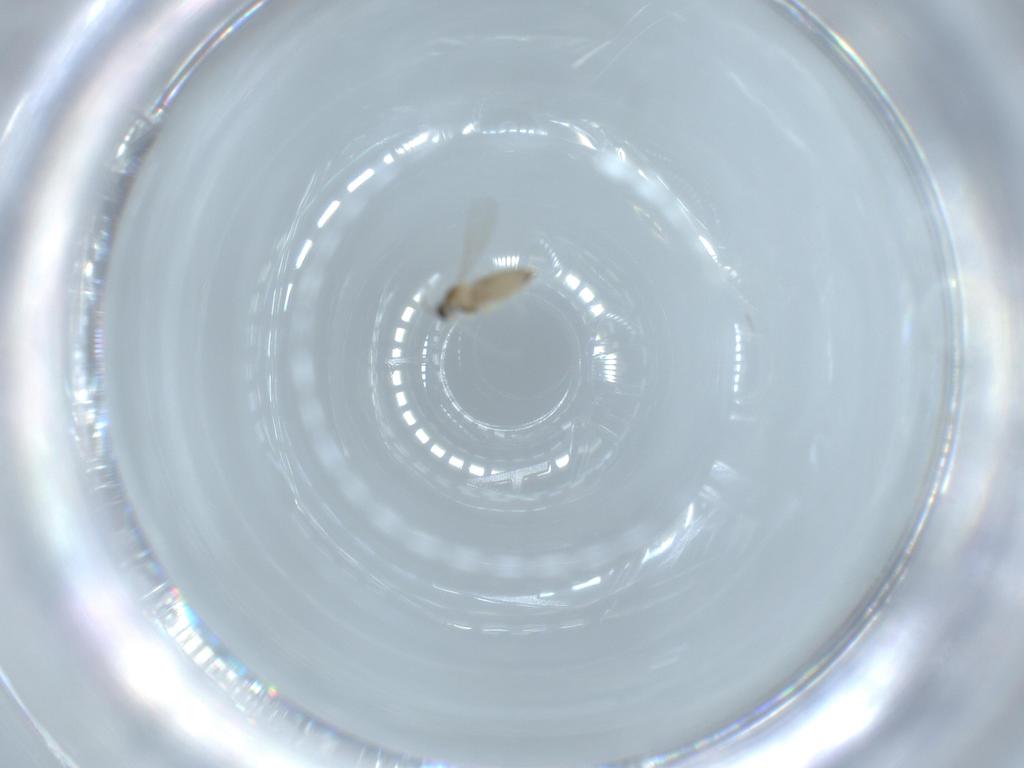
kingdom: Animalia
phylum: Arthropoda
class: Insecta
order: Diptera
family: Cecidomyiidae
